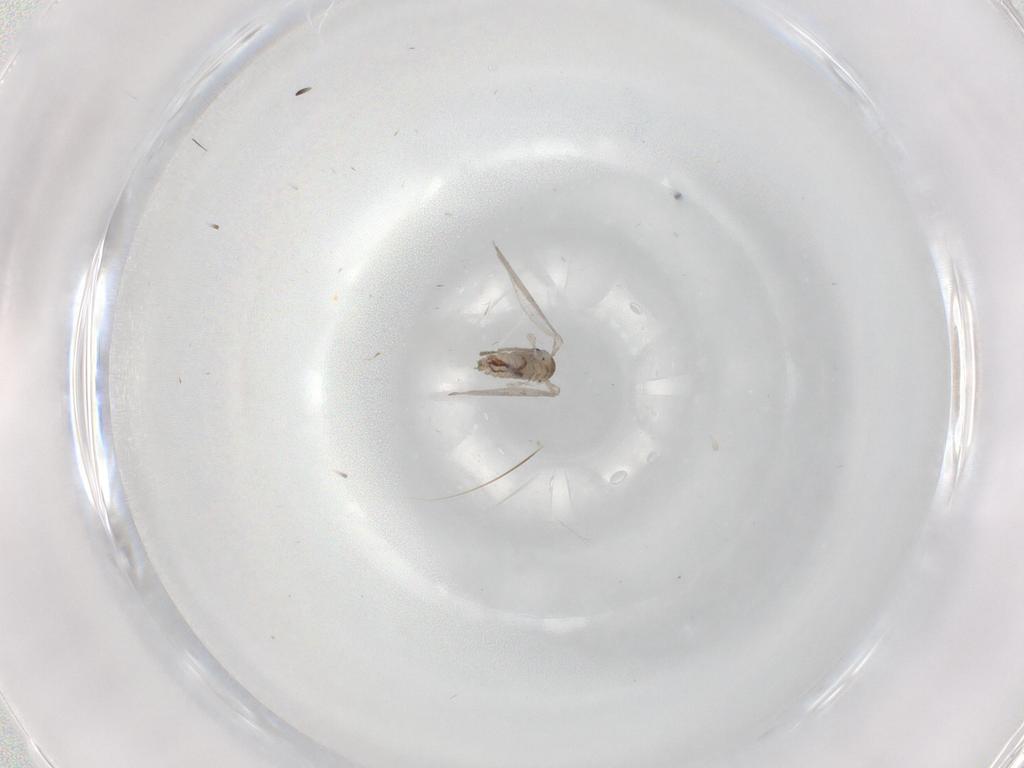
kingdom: Animalia
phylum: Arthropoda
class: Insecta
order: Diptera
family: Psychodidae
